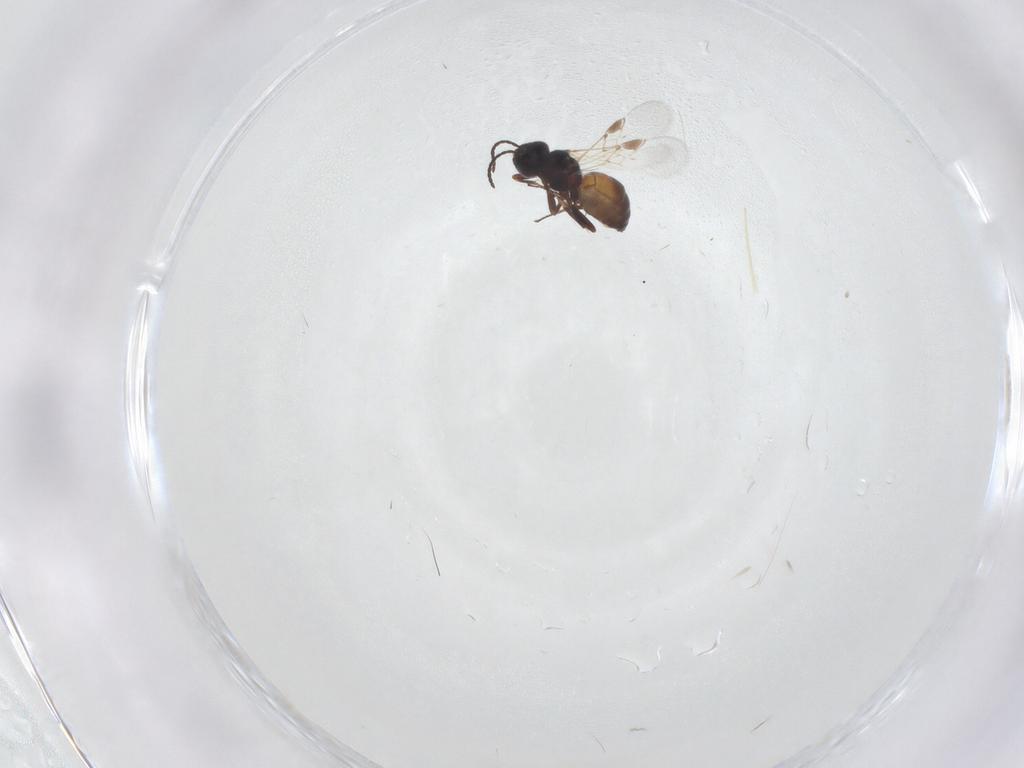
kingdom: Animalia
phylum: Arthropoda
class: Insecta
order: Hymenoptera
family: Braconidae
